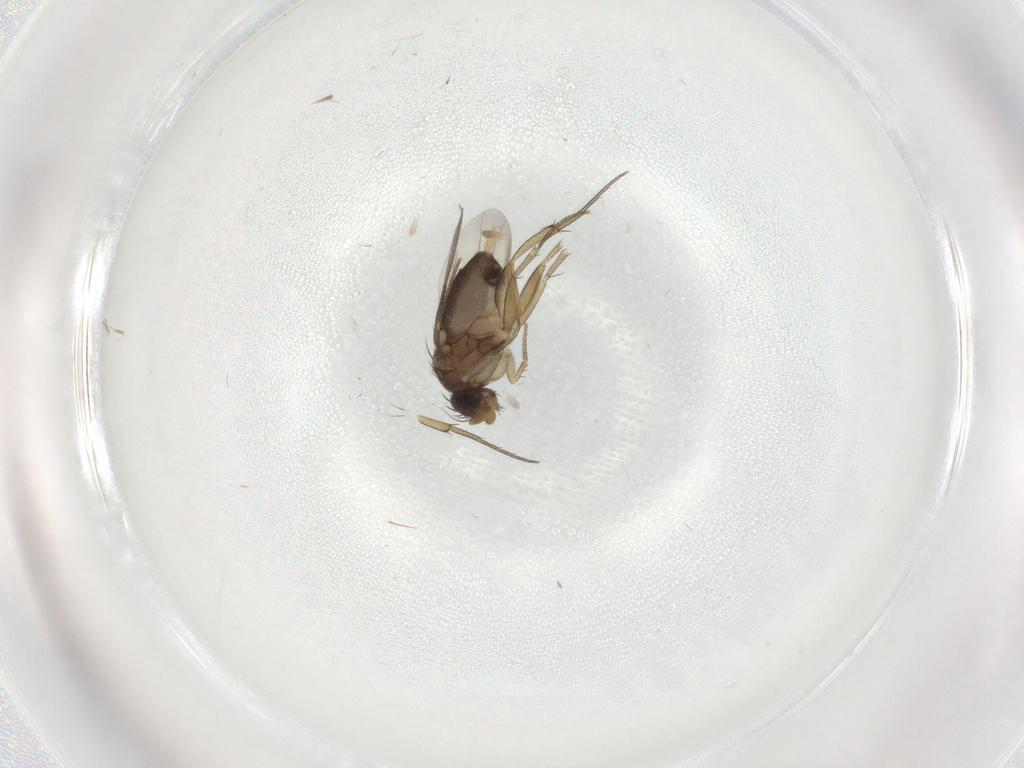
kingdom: Animalia
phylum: Arthropoda
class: Insecta
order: Diptera
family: Phoridae
